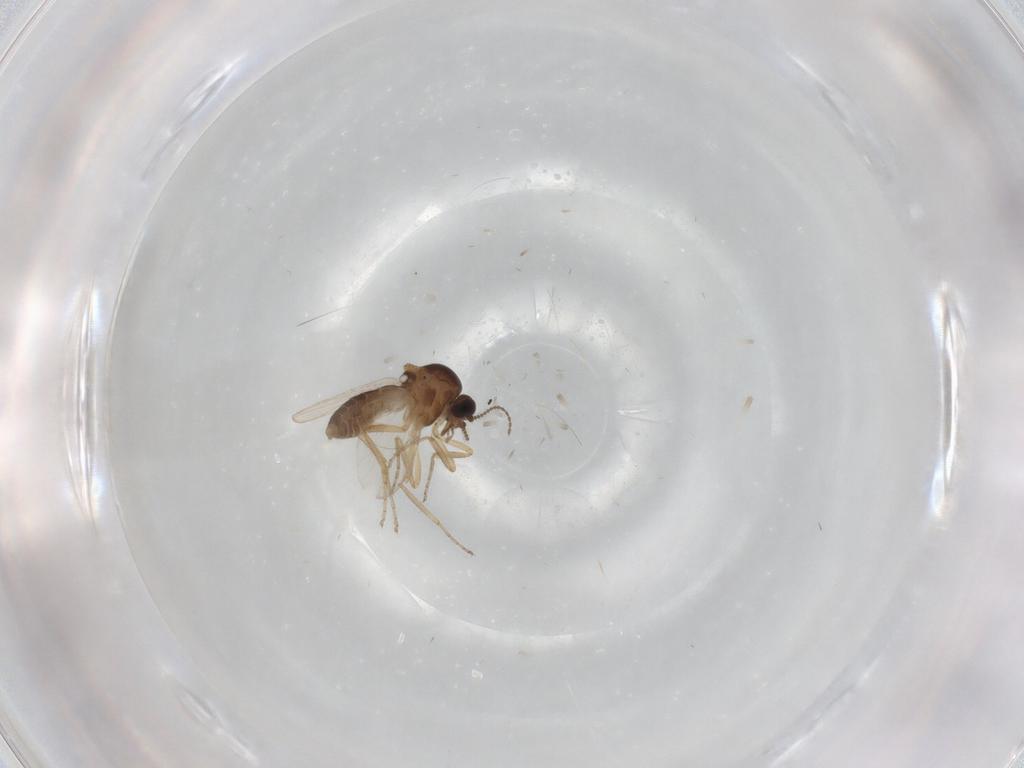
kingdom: Animalia
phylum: Arthropoda
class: Insecta
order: Diptera
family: Ceratopogonidae
